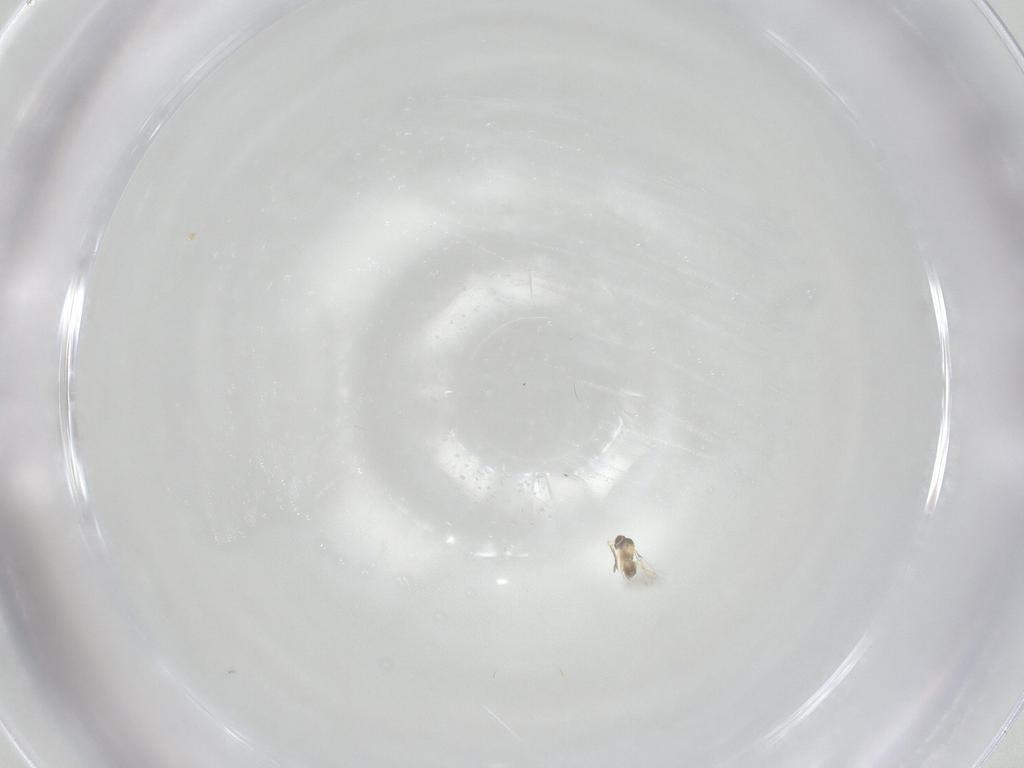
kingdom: Animalia
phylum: Arthropoda
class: Insecta
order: Hymenoptera
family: Mymaridae
